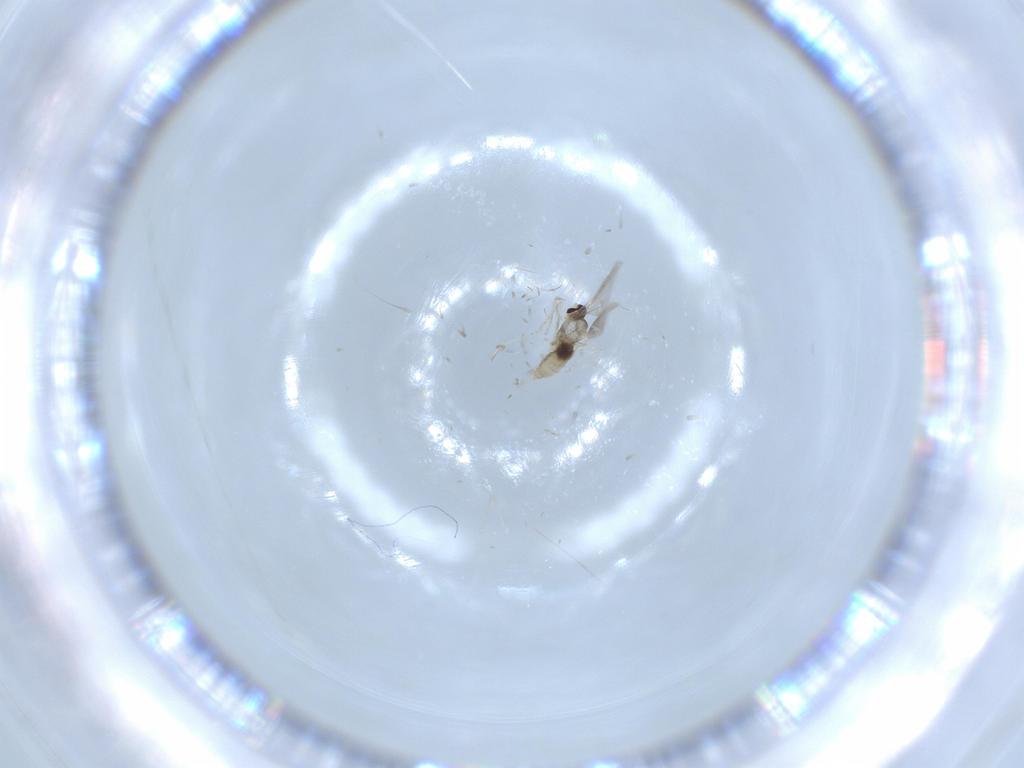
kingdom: Animalia
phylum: Arthropoda
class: Insecta
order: Diptera
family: Cecidomyiidae
